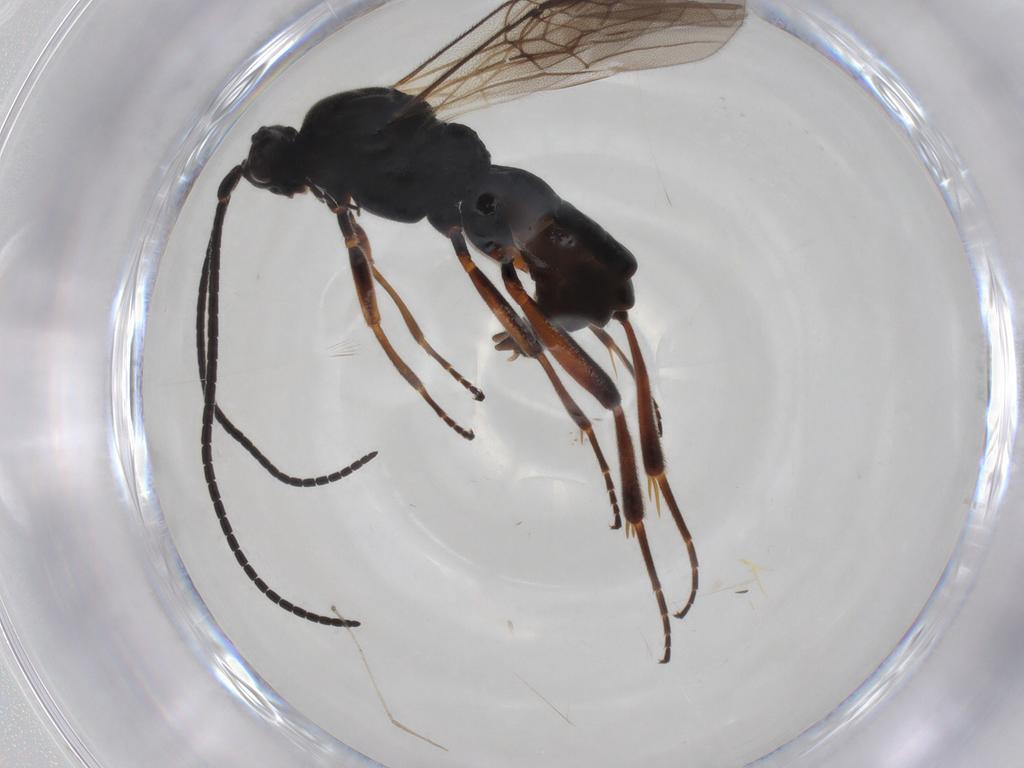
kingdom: Animalia
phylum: Arthropoda
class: Insecta
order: Hymenoptera
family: Braconidae
